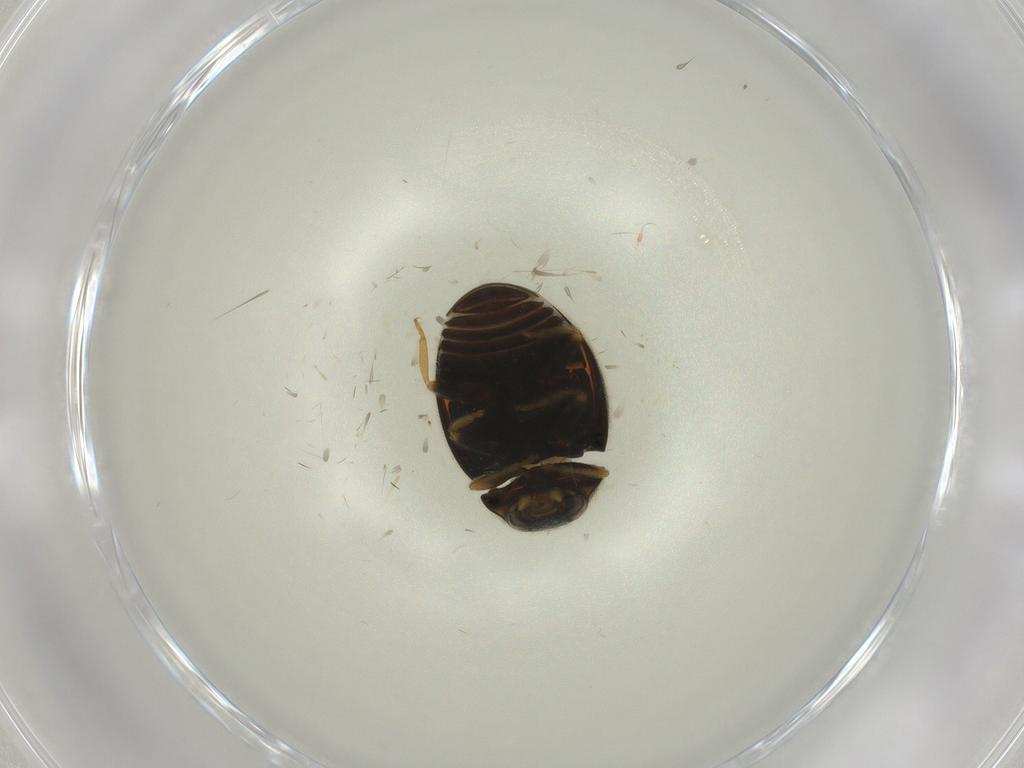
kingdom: Animalia
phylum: Arthropoda
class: Insecta
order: Coleoptera
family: Coccinellidae
